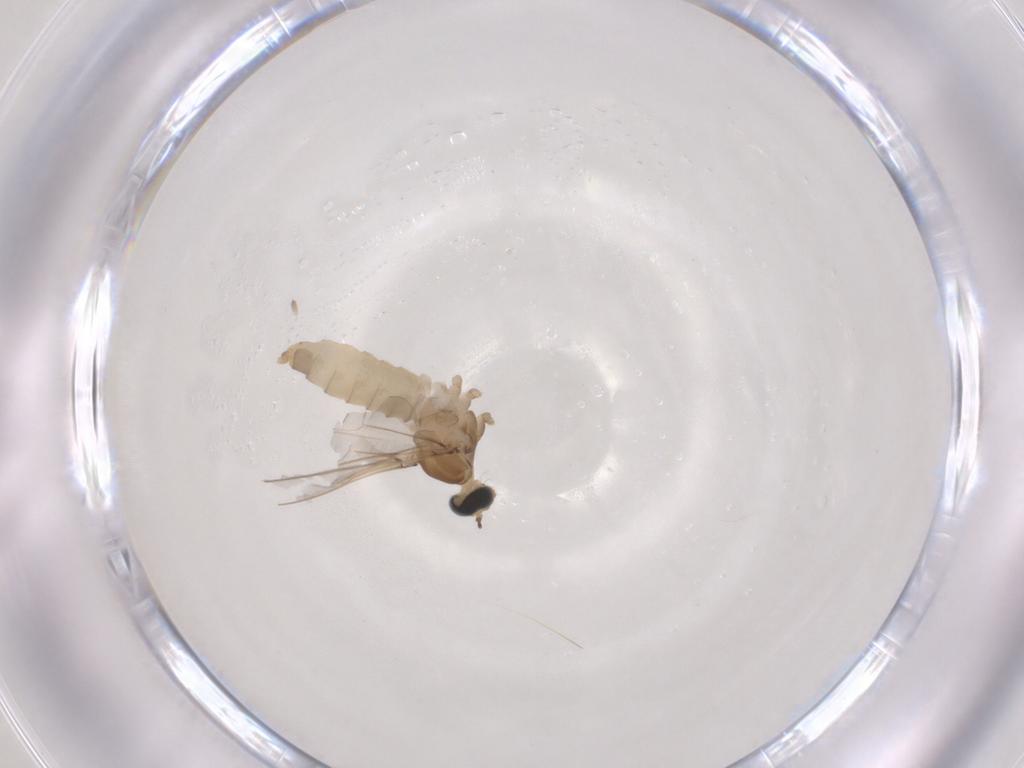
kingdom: Animalia
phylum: Arthropoda
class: Insecta
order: Diptera
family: Cecidomyiidae
